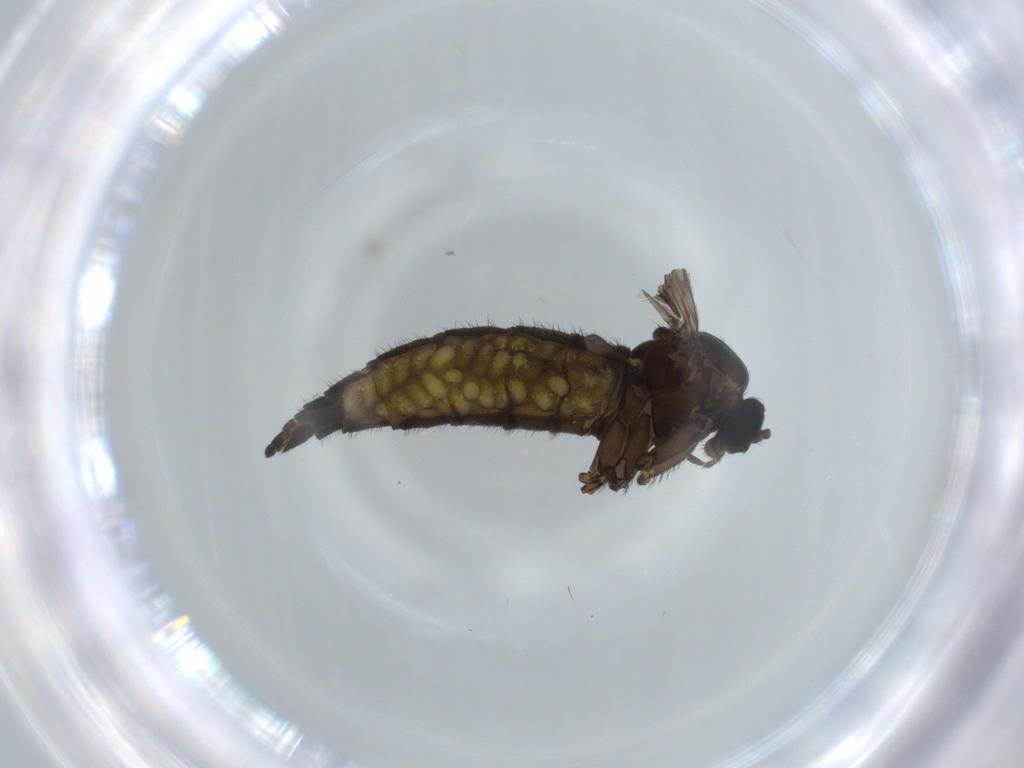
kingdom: Animalia
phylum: Arthropoda
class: Insecta
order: Diptera
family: Sciaridae
